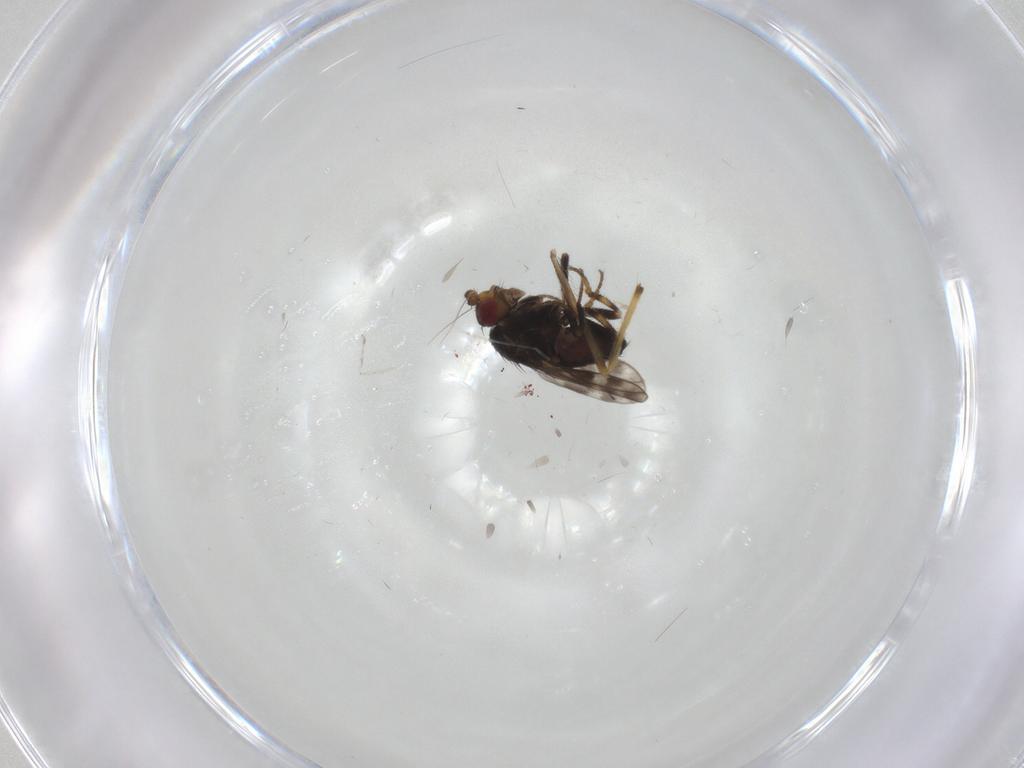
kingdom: Animalia
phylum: Arthropoda
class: Insecta
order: Diptera
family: Sphaeroceridae
